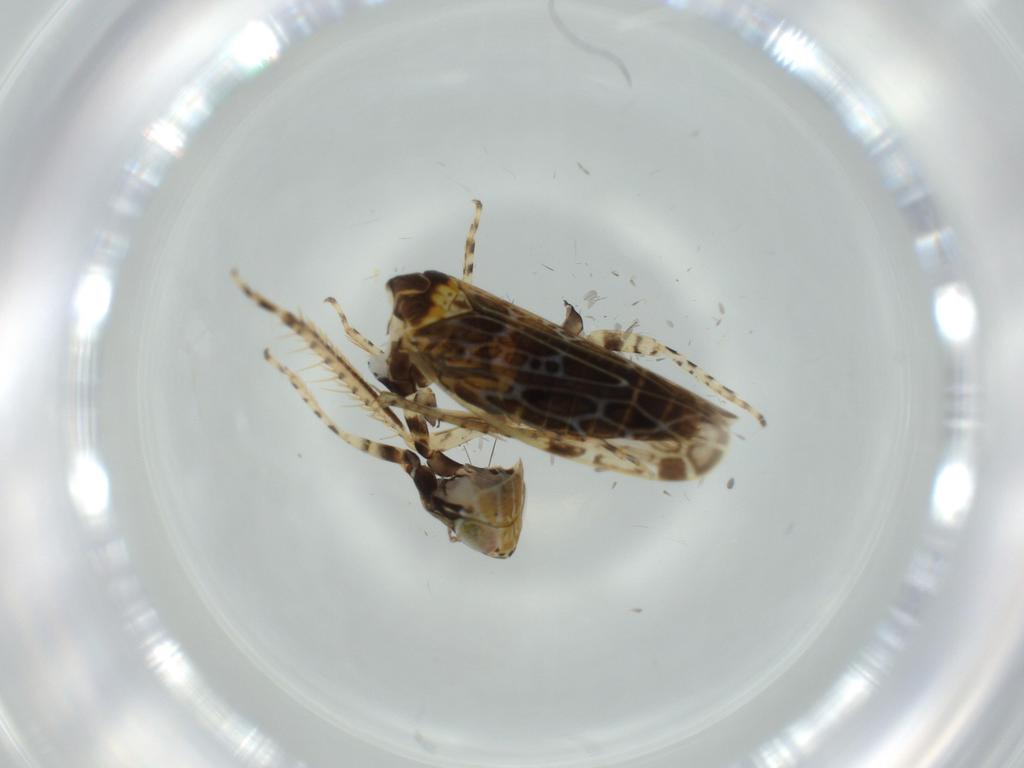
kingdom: Animalia
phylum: Arthropoda
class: Insecta
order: Hemiptera
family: Cicadellidae
